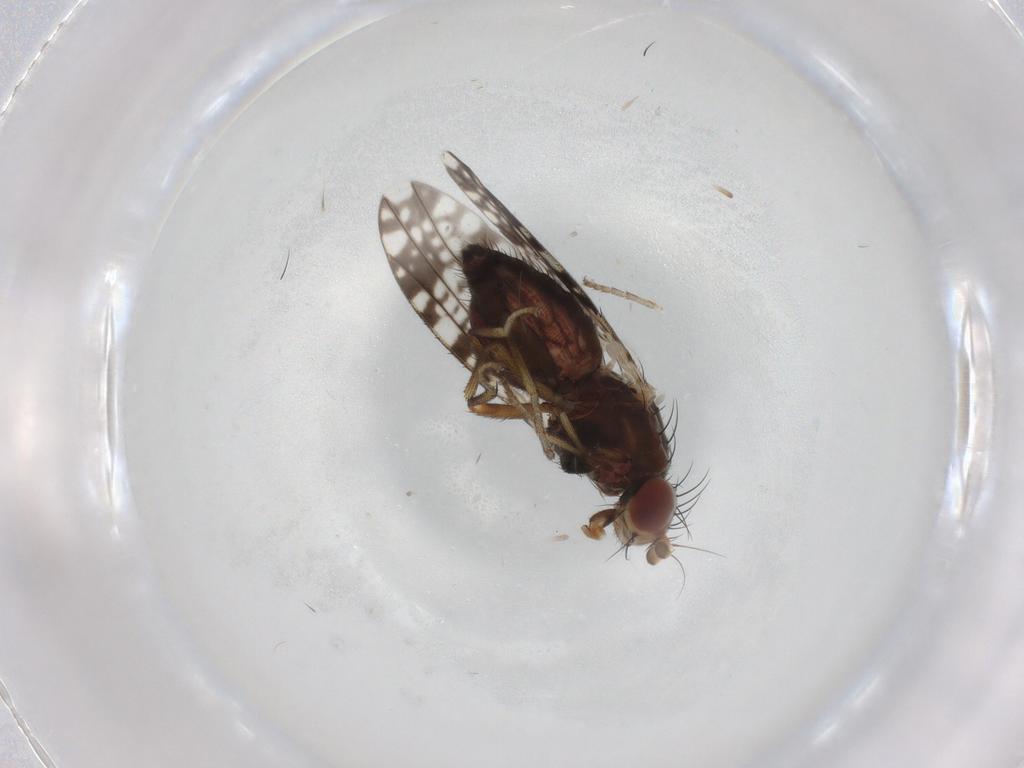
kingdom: Animalia
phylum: Arthropoda
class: Insecta
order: Diptera
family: Tephritidae
